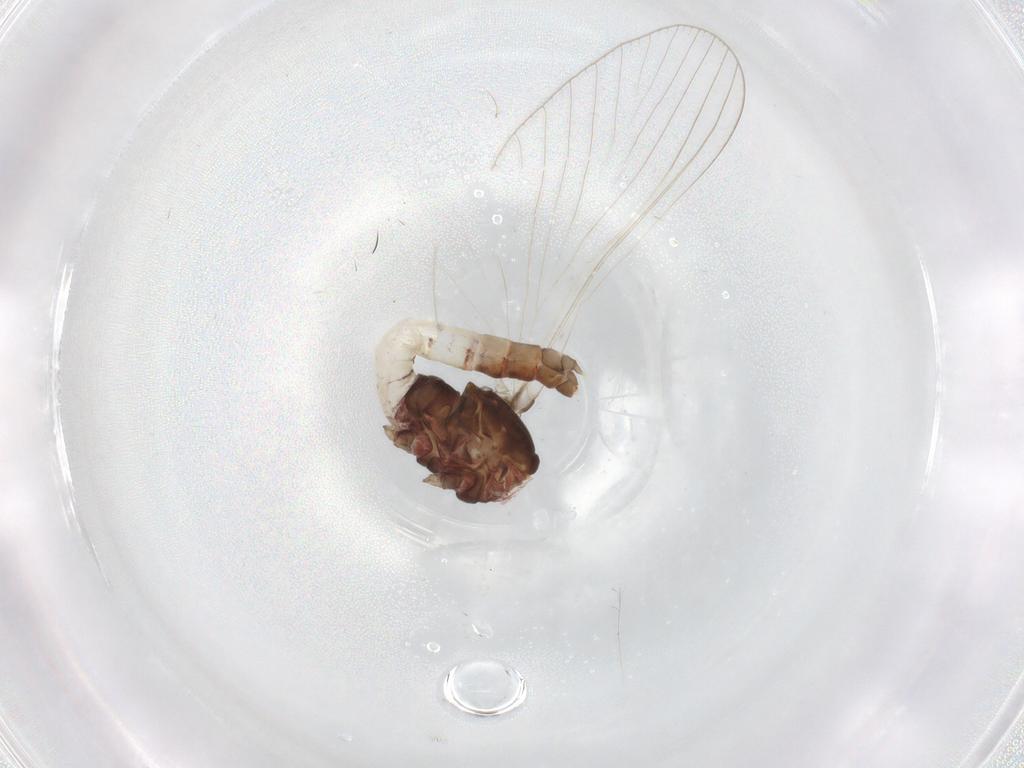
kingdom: Animalia
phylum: Arthropoda
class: Insecta
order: Ephemeroptera
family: Baetidae
